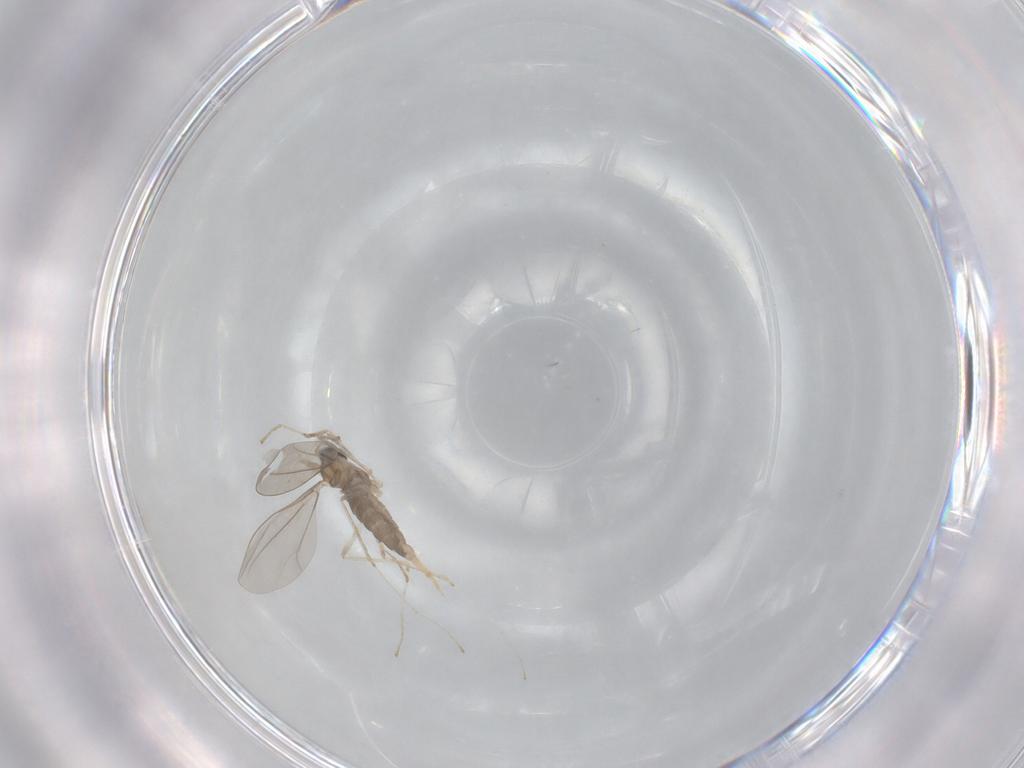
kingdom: Animalia
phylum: Arthropoda
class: Insecta
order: Diptera
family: Cecidomyiidae
